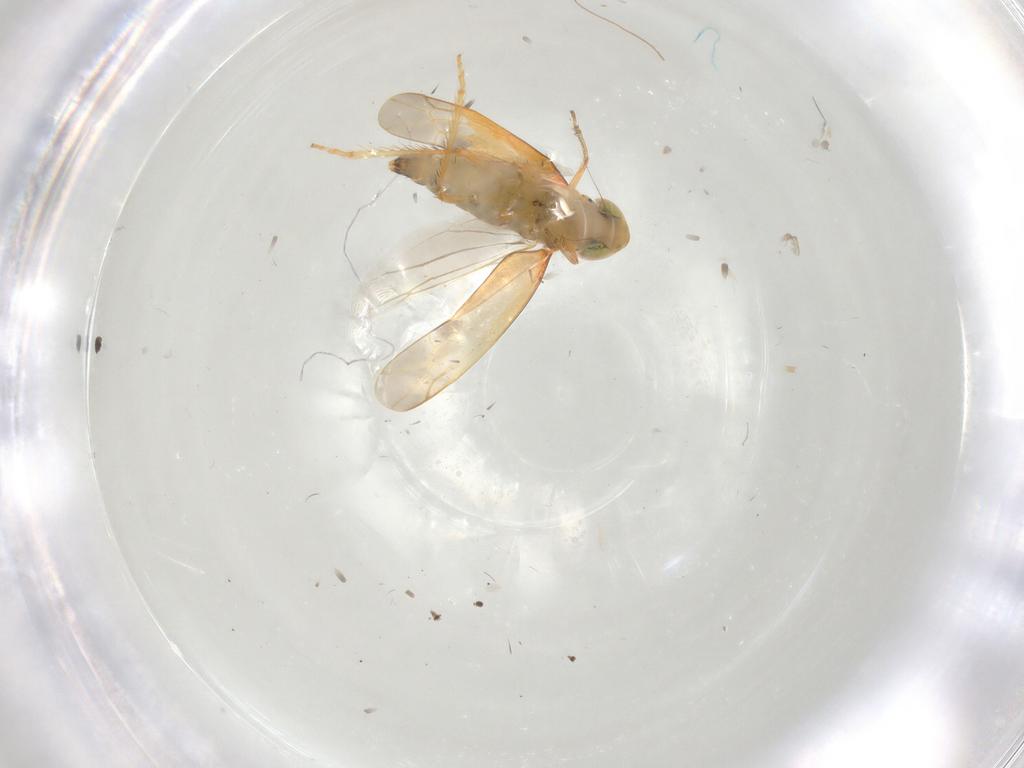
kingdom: Animalia
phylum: Arthropoda
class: Insecta
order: Hemiptera
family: Cicadellidae
